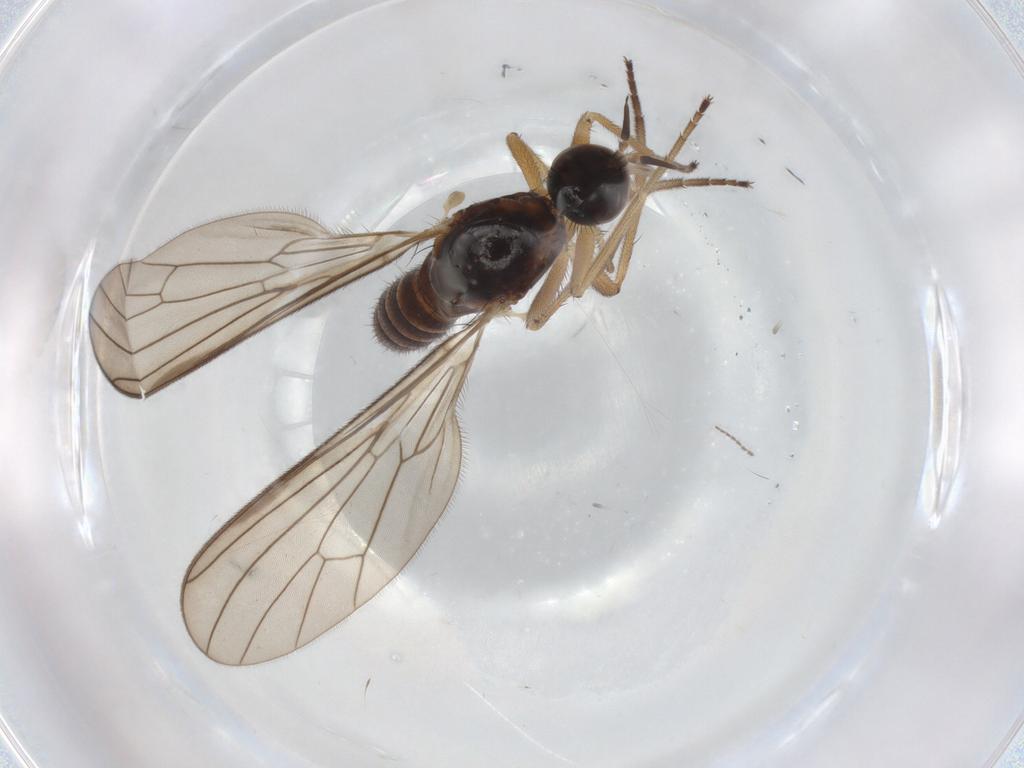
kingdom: Animalia
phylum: Arthropoda
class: Insecta
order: Diptera
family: Empididae
